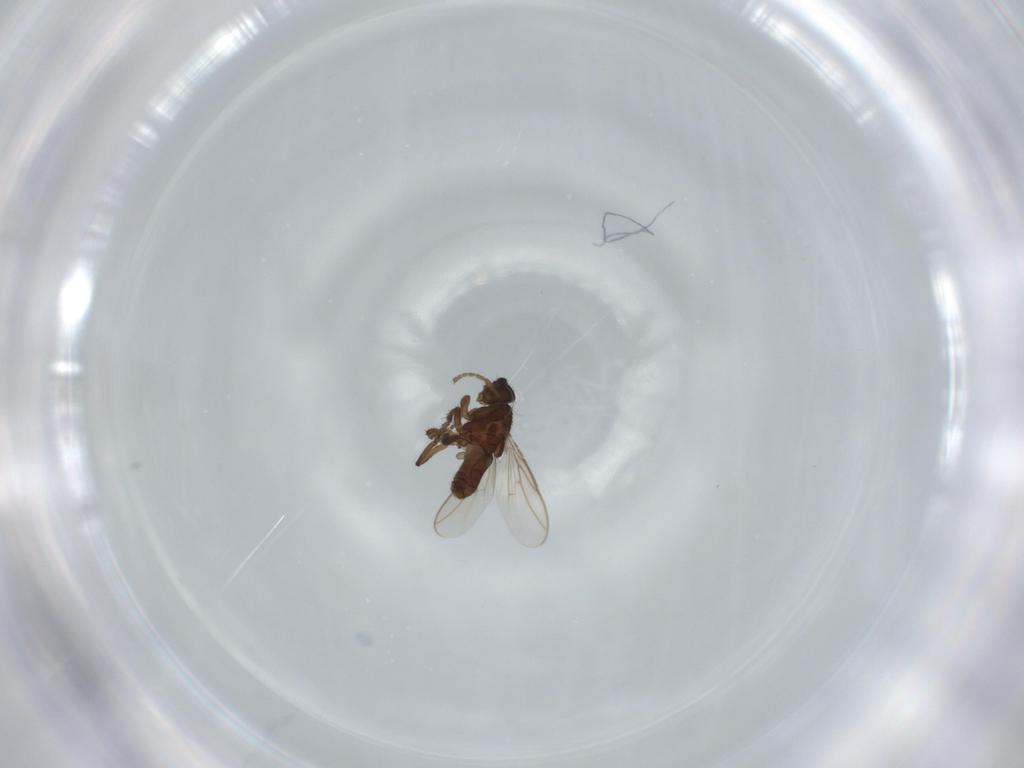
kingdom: Animalia
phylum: Arthropoda
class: Insecta
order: Diptera
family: Sphaeroceridae
